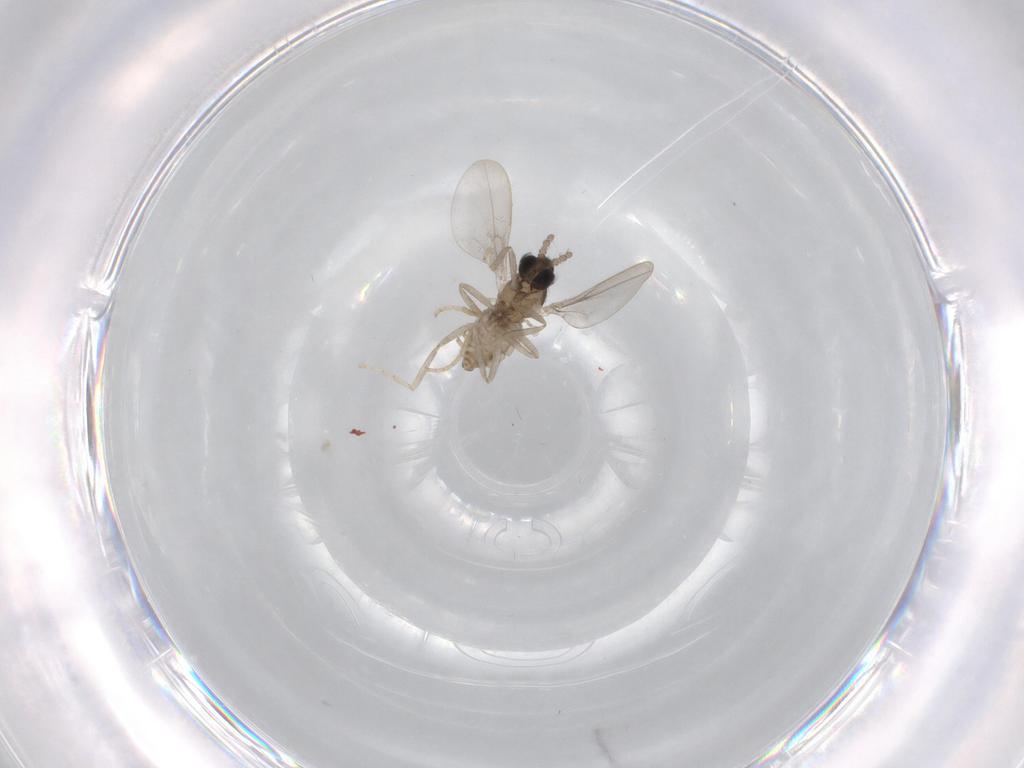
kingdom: Animalia
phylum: Arthropoda
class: Insecta
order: Diptera
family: Cecidomyiidae
